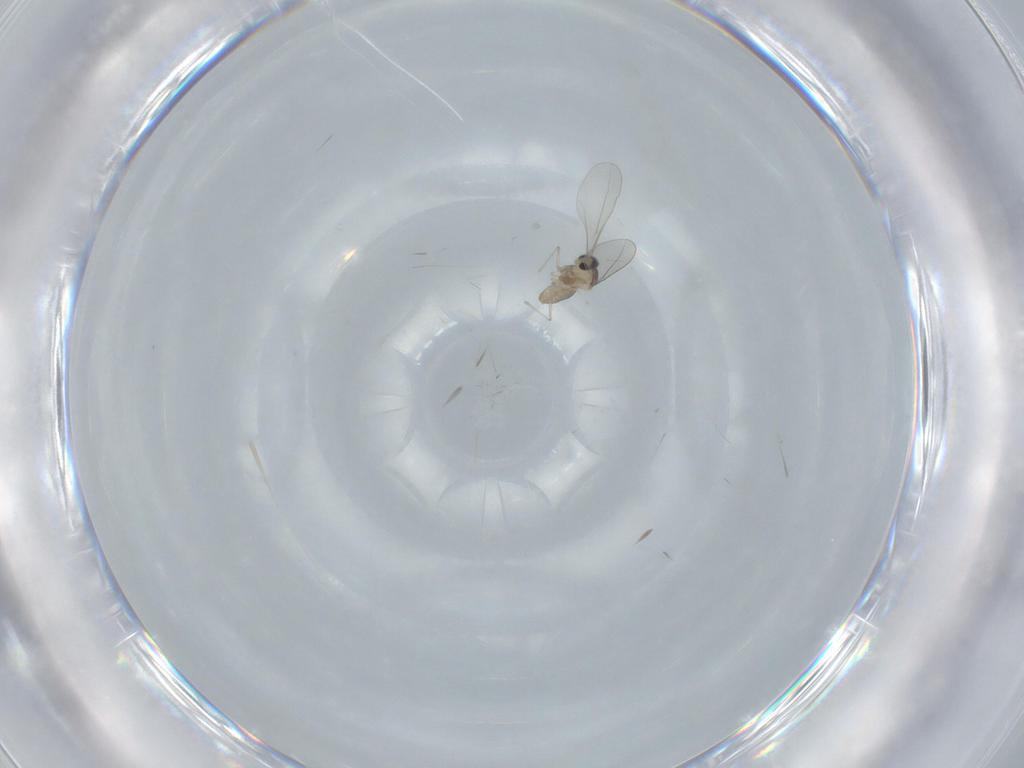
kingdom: Animalia
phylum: Arthropoda
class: Insecta
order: Diptera
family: Cecidomyiidae
